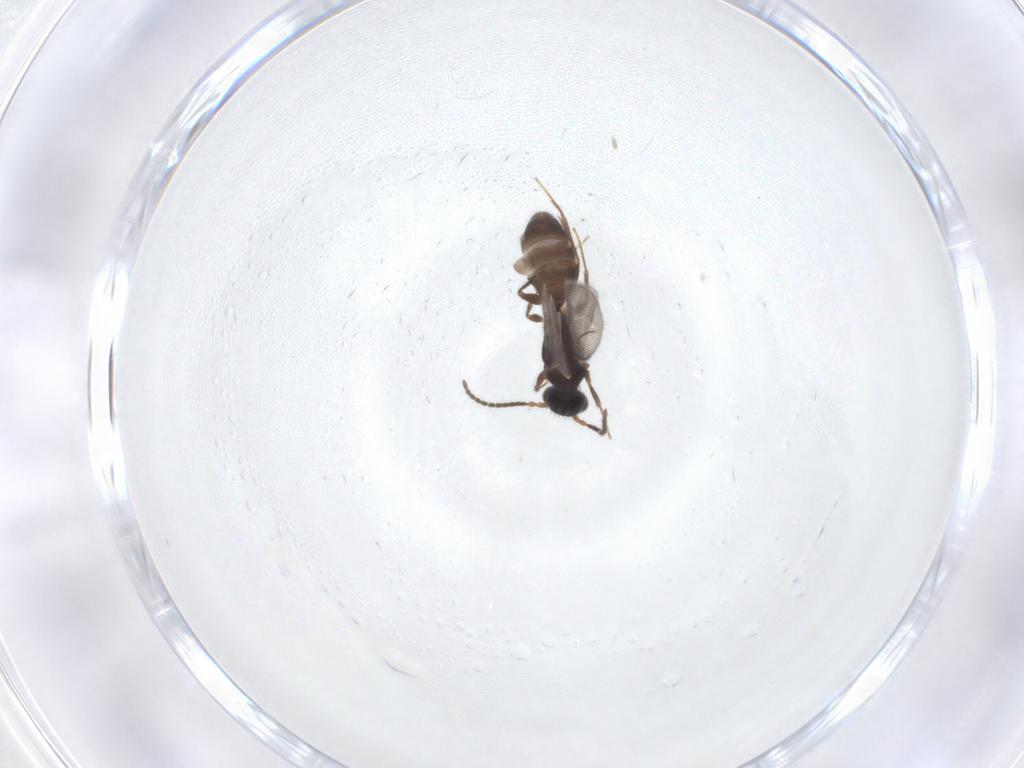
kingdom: Animalia
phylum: Arthropoda
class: Insecta
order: Hymenoptera
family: Bethylidae
